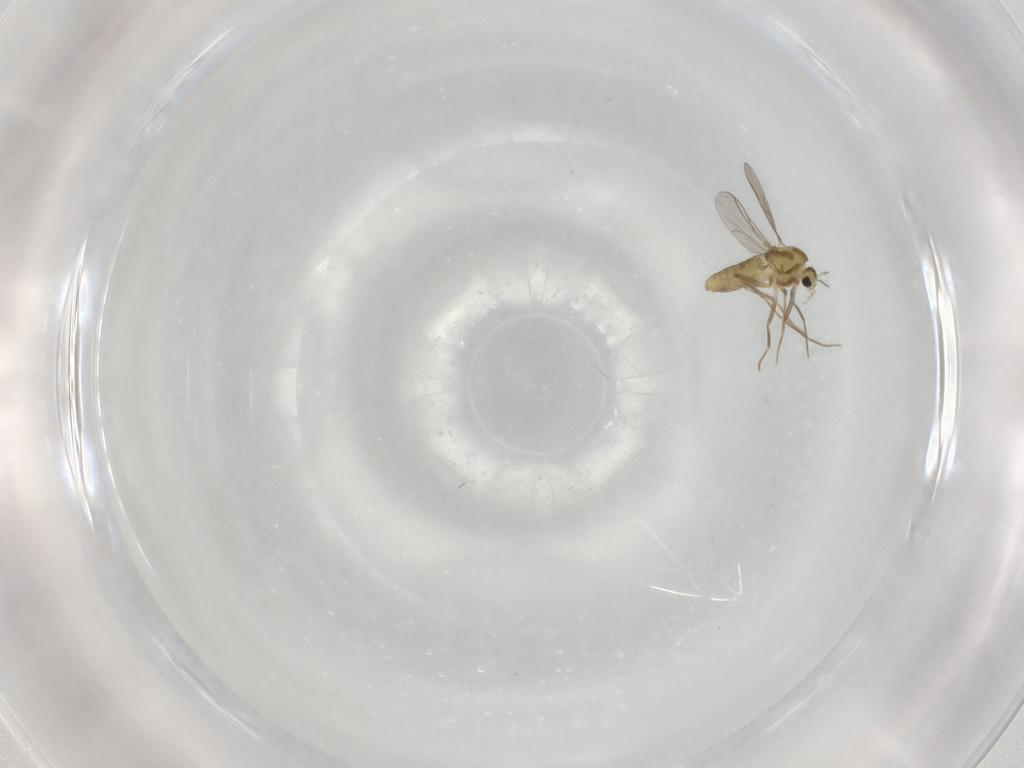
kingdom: Animalia
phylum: Arthropoda
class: Insecta
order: Diptera
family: Chironomidae
